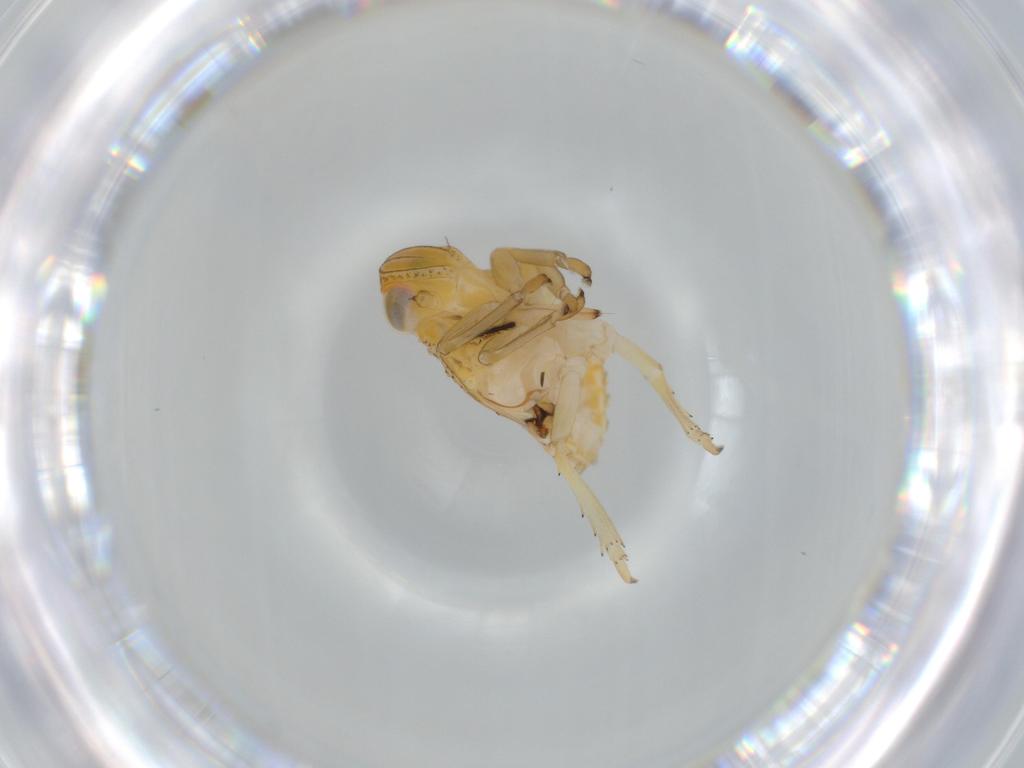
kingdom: Animalia
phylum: Arthropoda
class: Insecta
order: Hemiptera
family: Issidae
